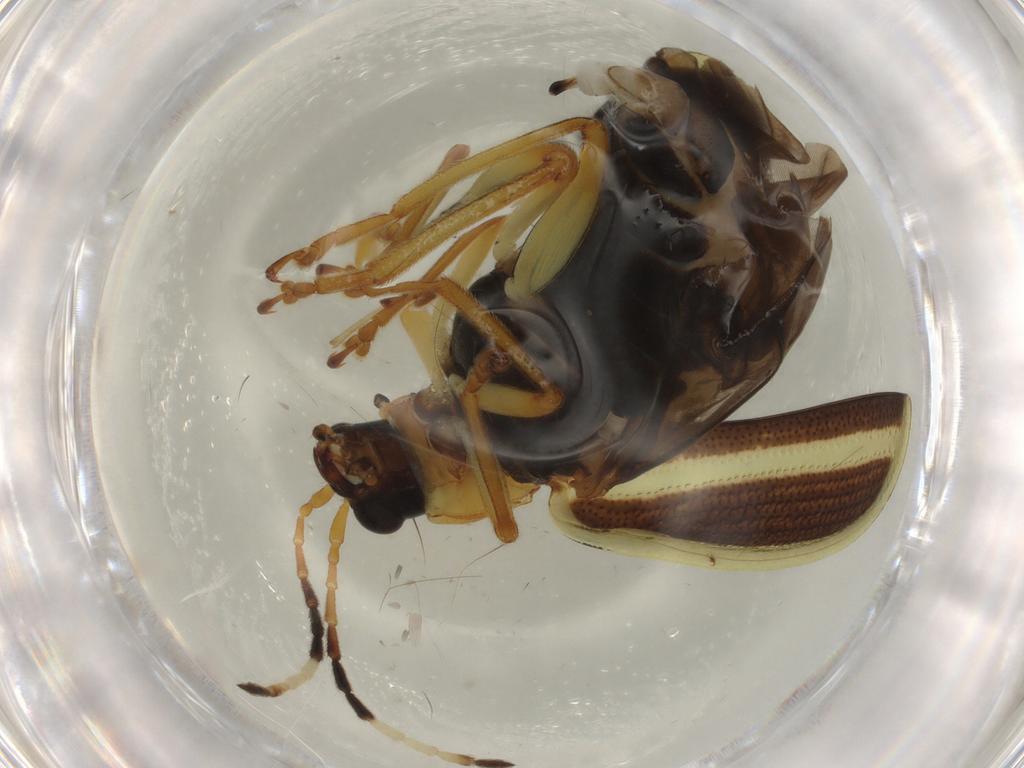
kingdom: Animalia
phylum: Arthropoda
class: Insecta
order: Coleoptera
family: Chrysomelidae
